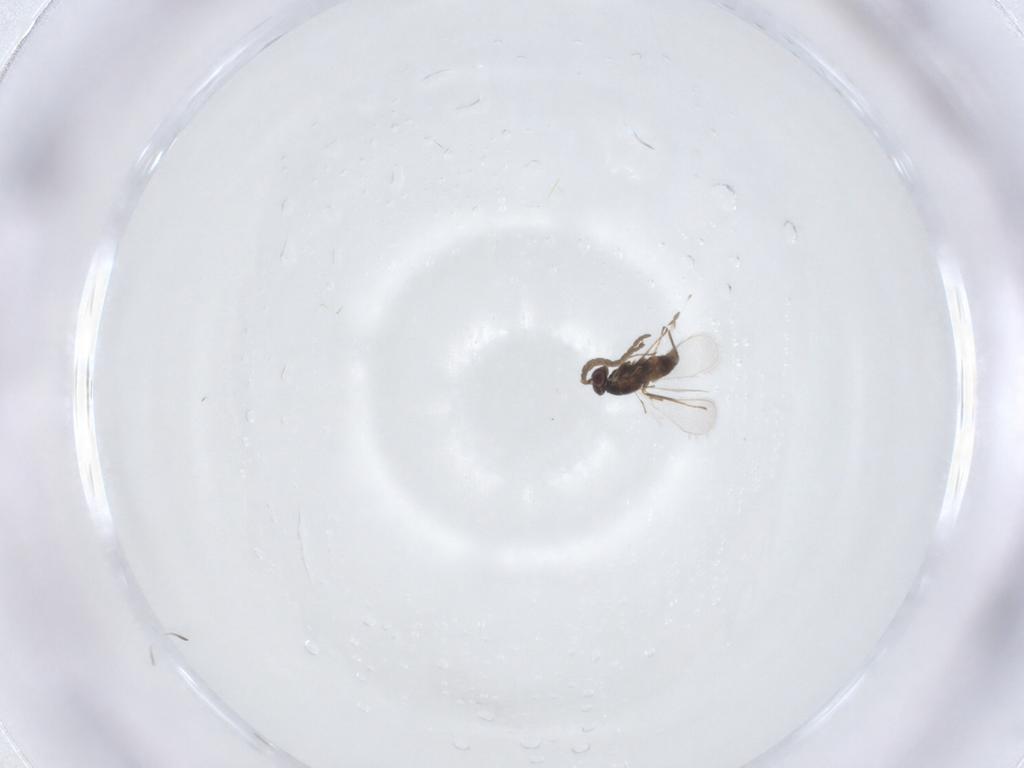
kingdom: Animalia
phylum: Arthropoda
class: Insecta
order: Hymenoptera
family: Mymaridae
